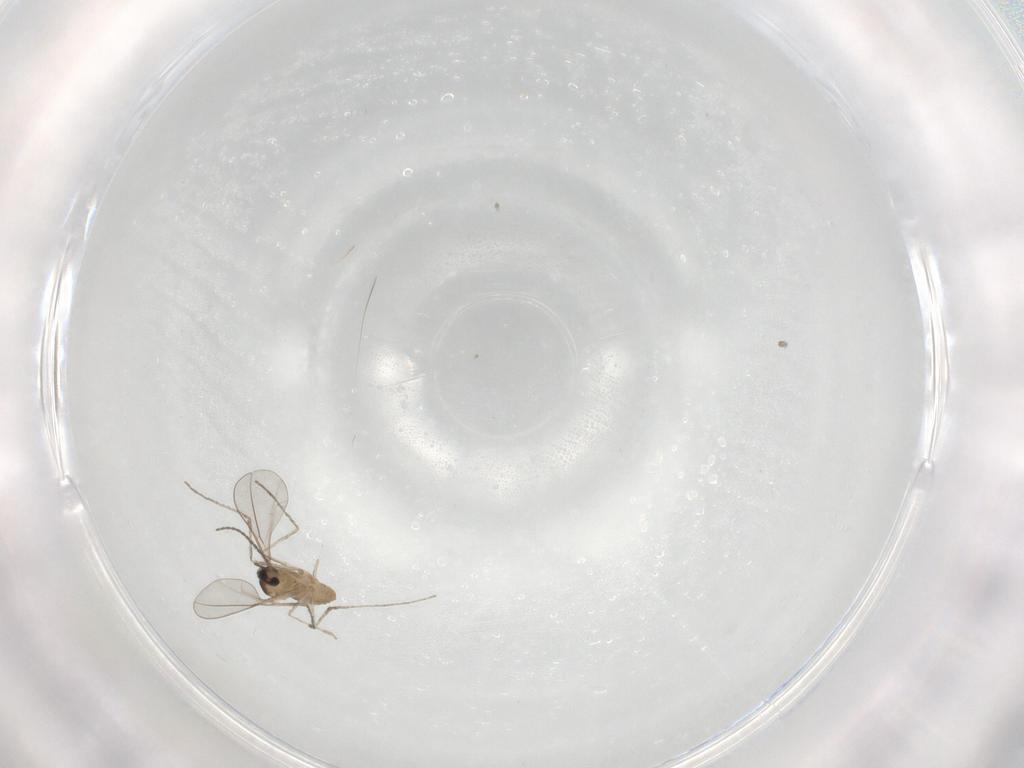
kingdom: Animalia
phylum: Arthropoda
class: Insecta
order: Diptera
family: Cecidomyiidae
